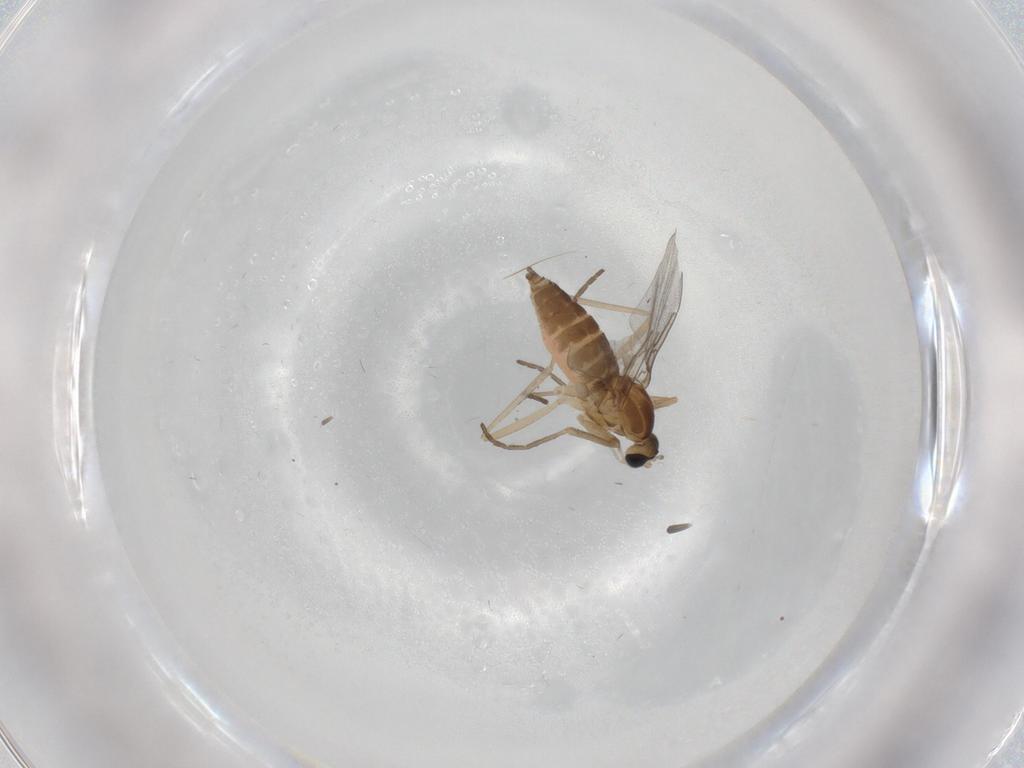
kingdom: Animalia
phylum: Arthropoda
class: Insecta
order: Diptera
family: Cecidomyiidae
